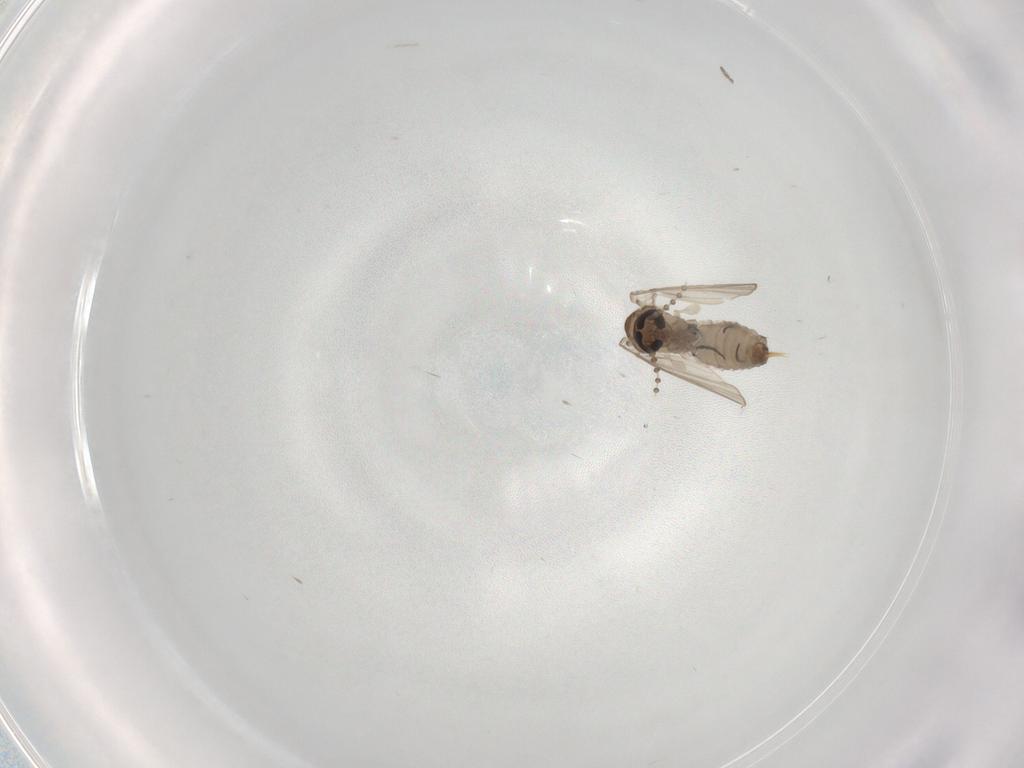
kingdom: Animalia
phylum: Arthropoda
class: Insecta
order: Diptera
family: Psychodidae
